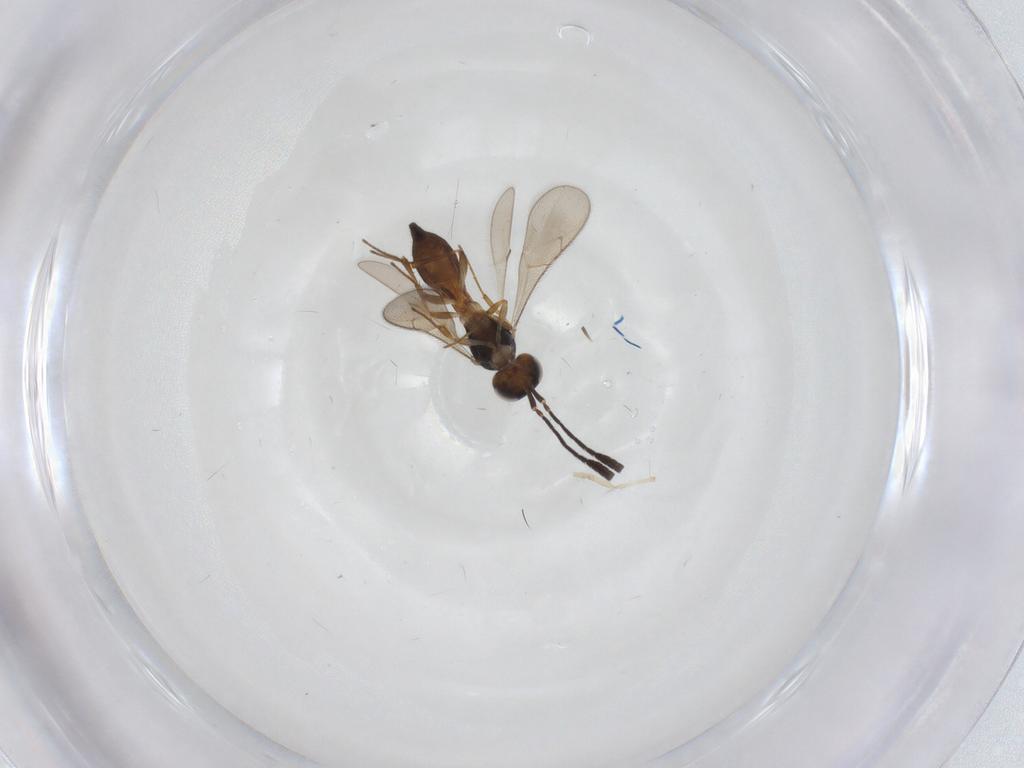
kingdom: Animalia
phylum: Arthropoda
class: Insecta
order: Hymenoptera
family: Scelionidae
